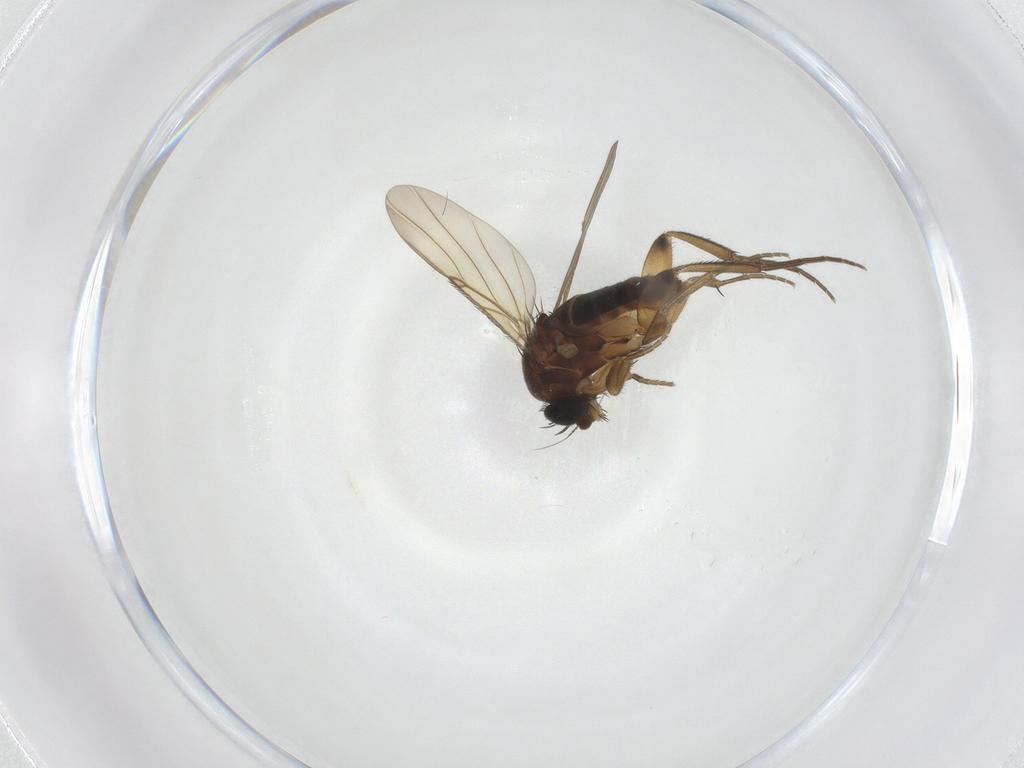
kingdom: Animalia
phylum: Arthropoda
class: Insecta
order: Diptera
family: Phoridae
